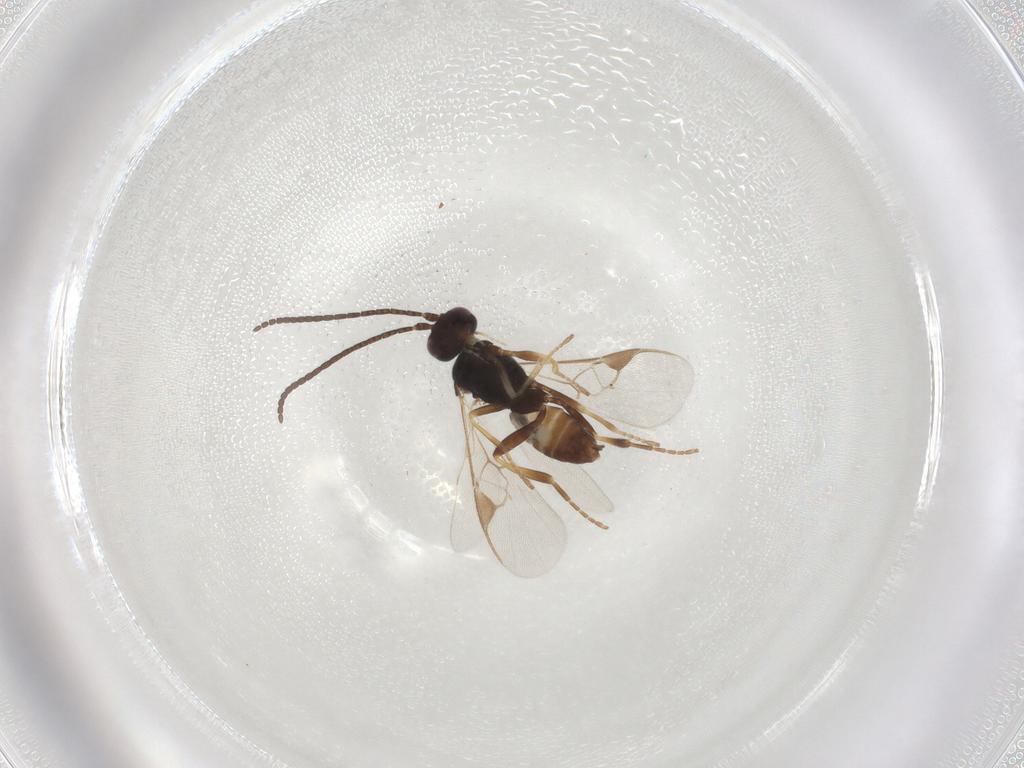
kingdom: Animalia
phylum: Arthropoda
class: Insecta
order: Hymenoptera
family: Braconidae
